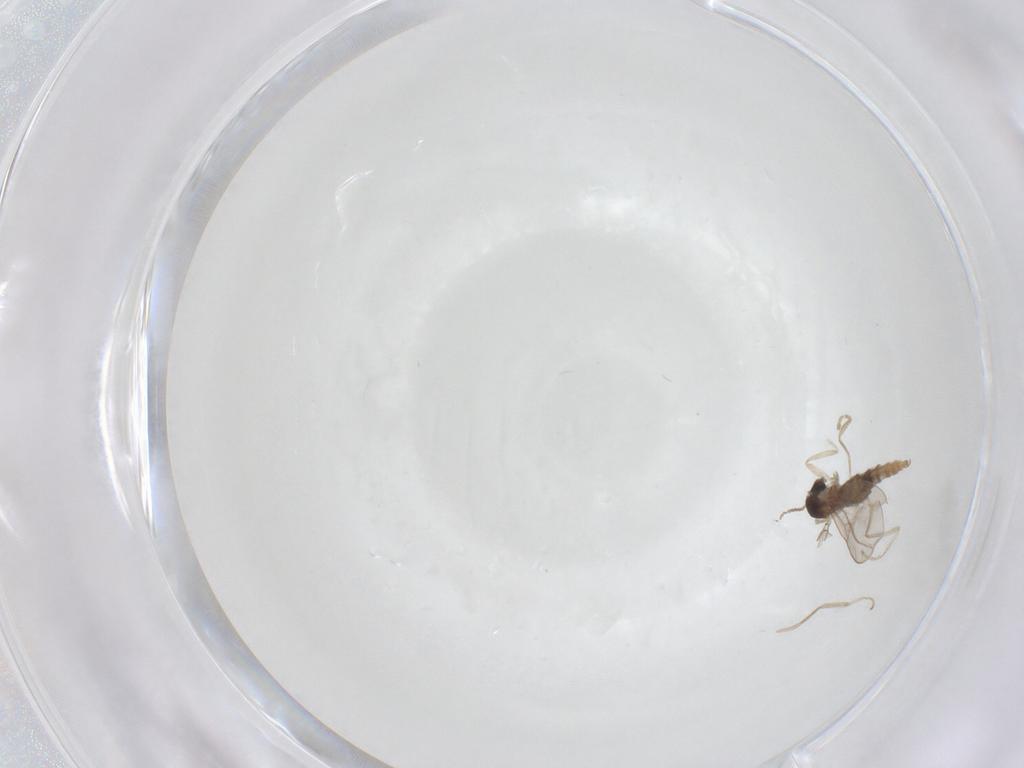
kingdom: Animalia
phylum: Arthropoda
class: Insecta
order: Diptera
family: Cecidomyiidae
